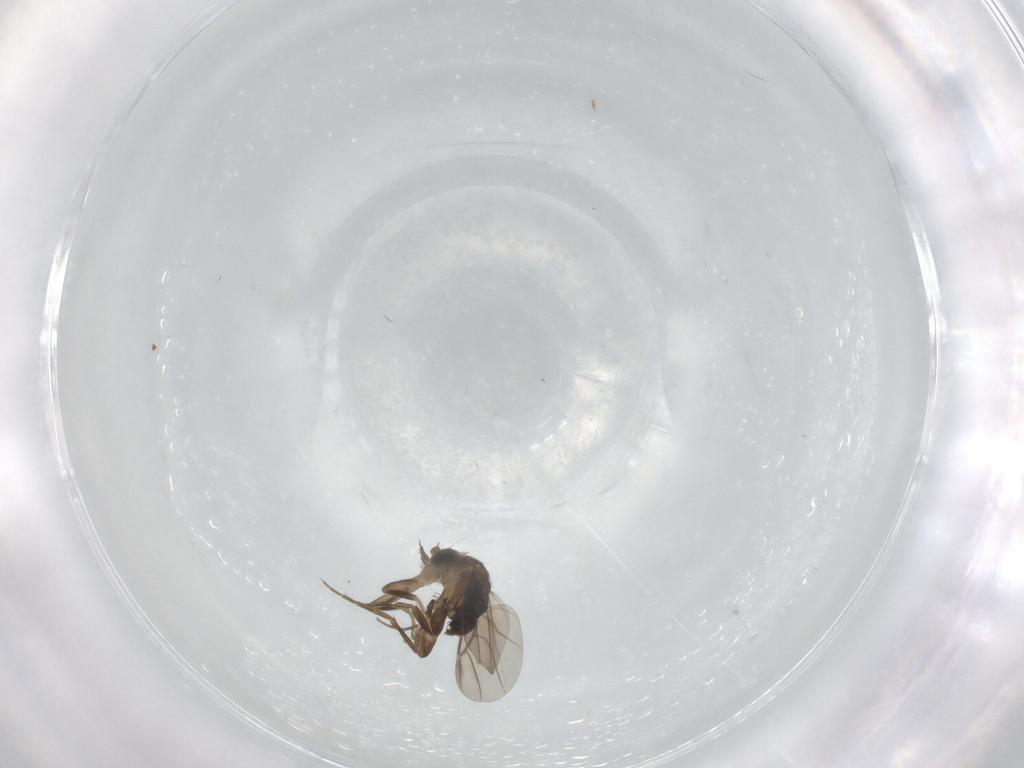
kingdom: Animalia
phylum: Arthropoda
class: Insecta
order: Diptera
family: Phoridae
